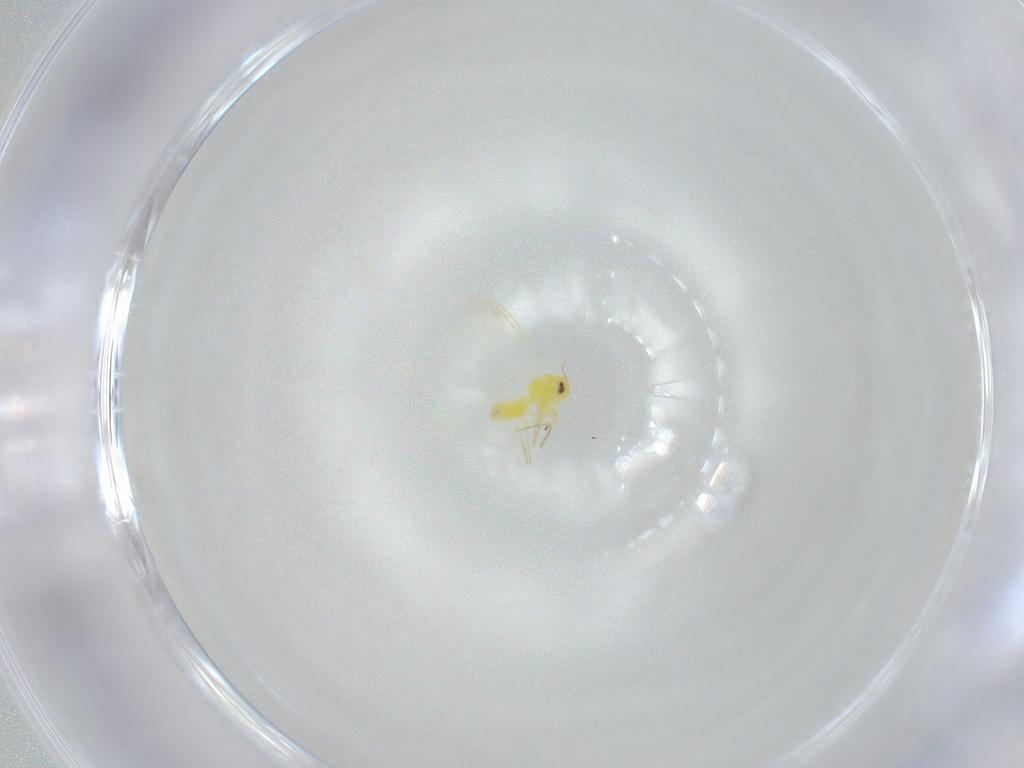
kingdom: Animalia
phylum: Arthropoda
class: Insecta
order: Hemiptera
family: Aleyrodidae
